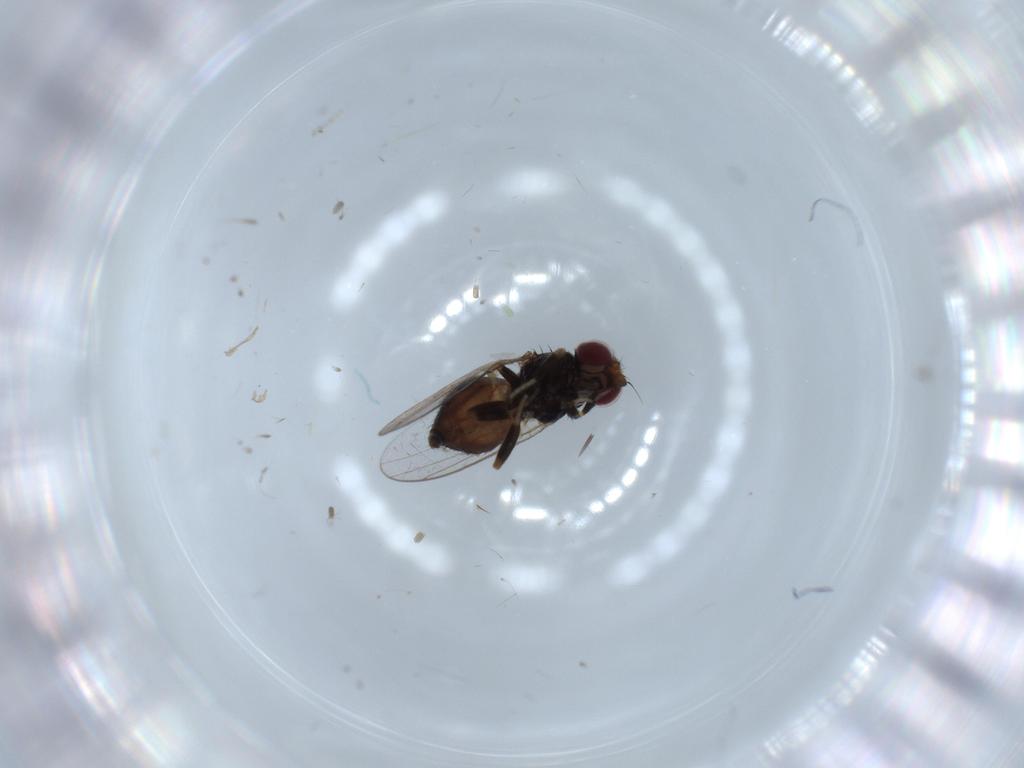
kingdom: Animalia
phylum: Arthropoda
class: Insecta
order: Diptera
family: Chloropidae
